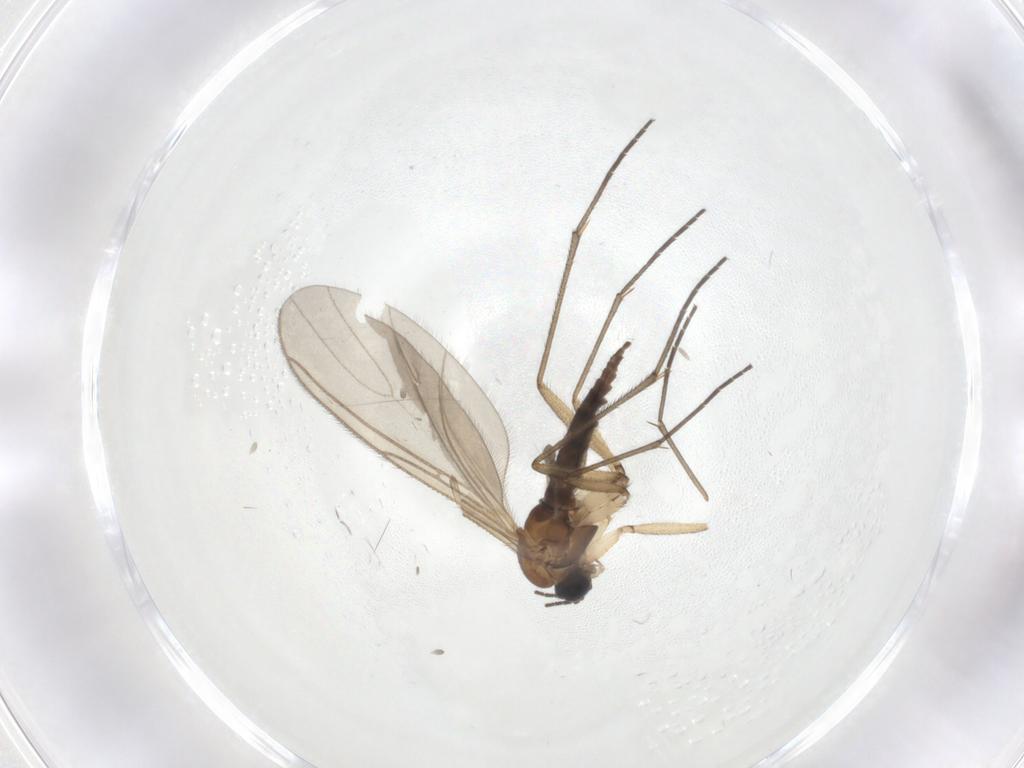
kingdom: Animalia
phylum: Arthropoda
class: Insecta
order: Diptera
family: Sciaridae
